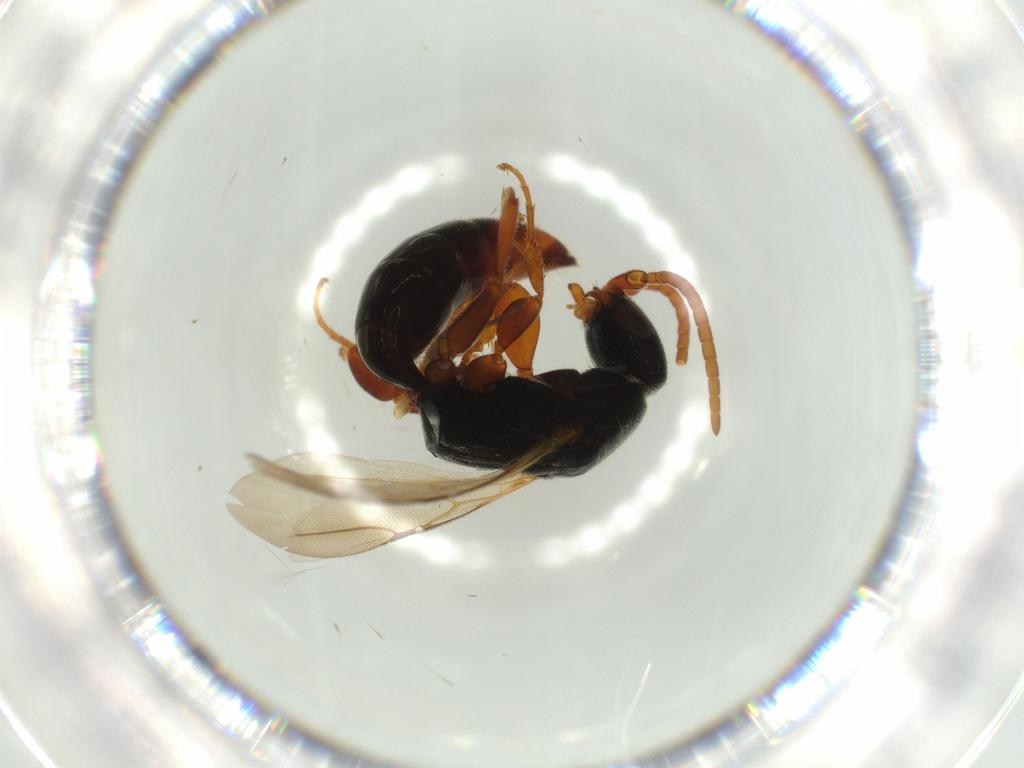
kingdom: Animalia
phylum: Arthropoda
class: Insecta
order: Hymenoptera
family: Bethylidae
